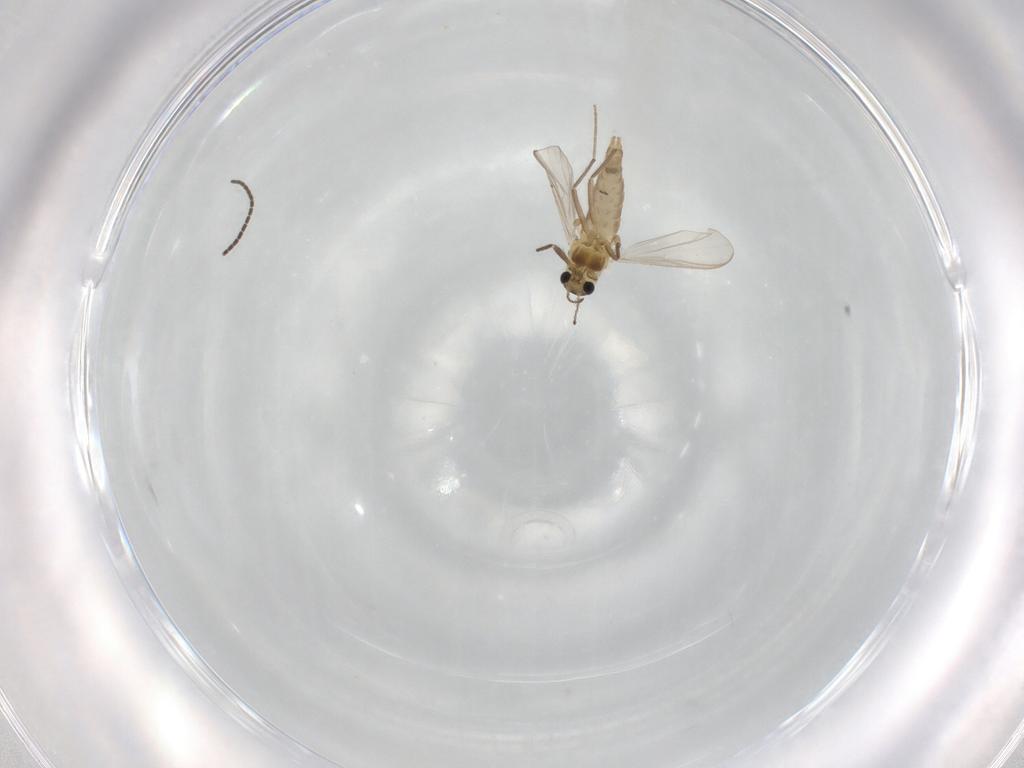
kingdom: Animalia
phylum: Arthropoda
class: Insecta
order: Diptera
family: Chironomidae
